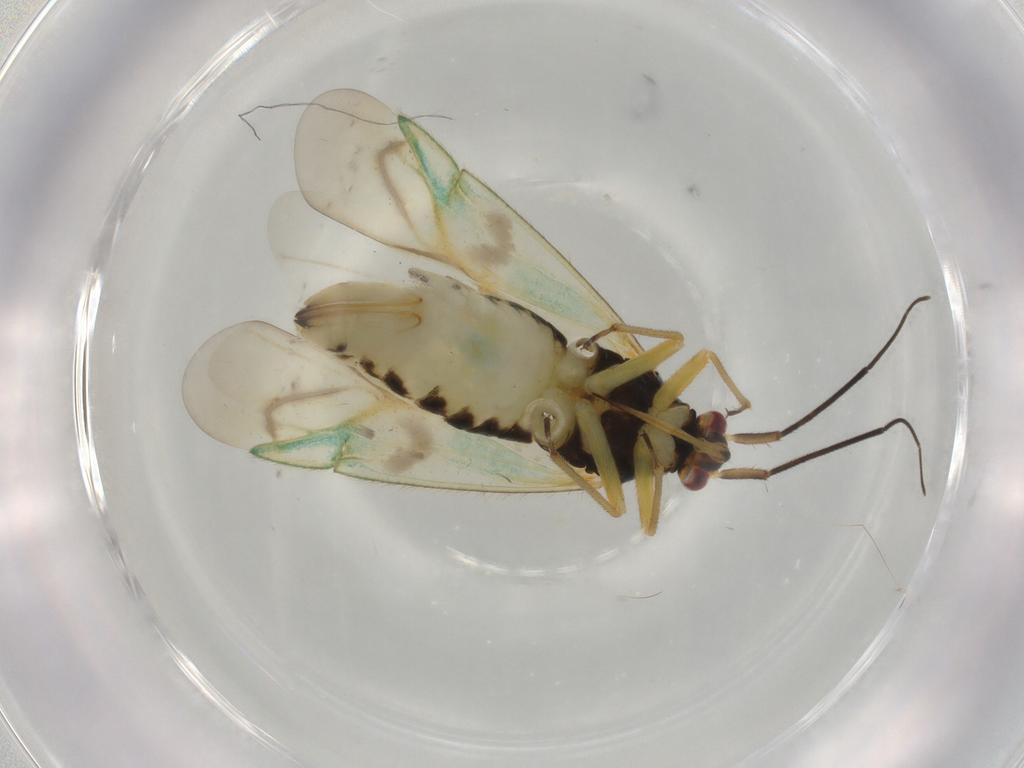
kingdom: Animalia
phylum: Arthropoda
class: Insecta
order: Hemiptera
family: Miridae
